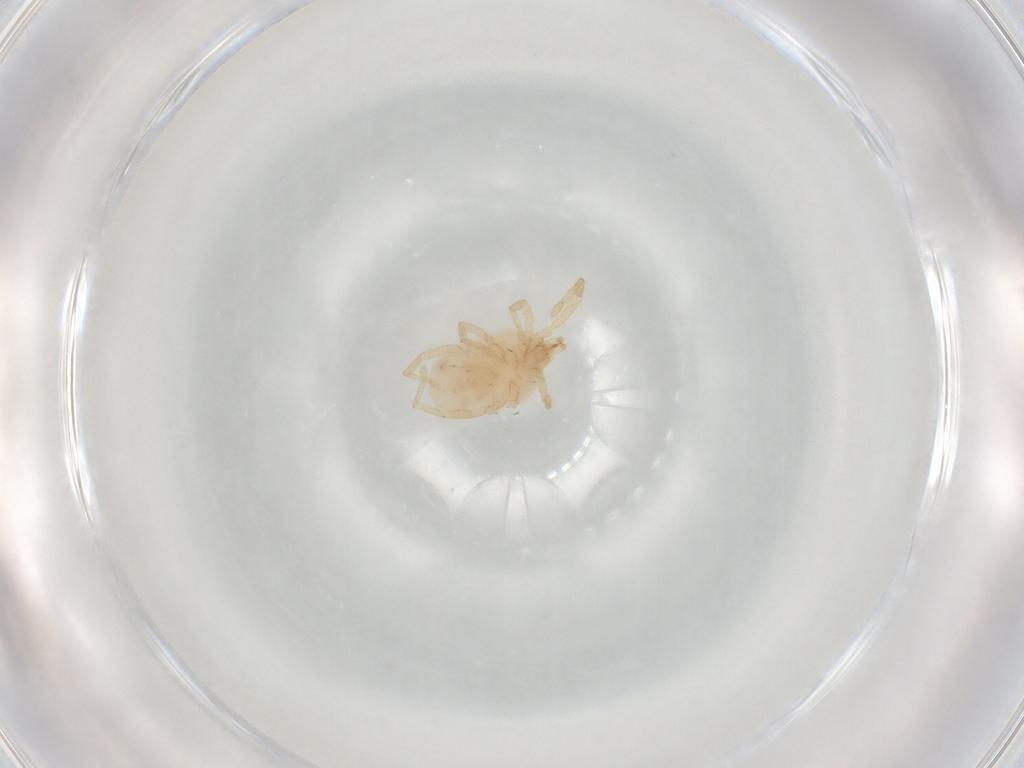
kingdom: Animalia
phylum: Arthropoda
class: Arachnida
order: Trombidiformes
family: Erythraeidae
